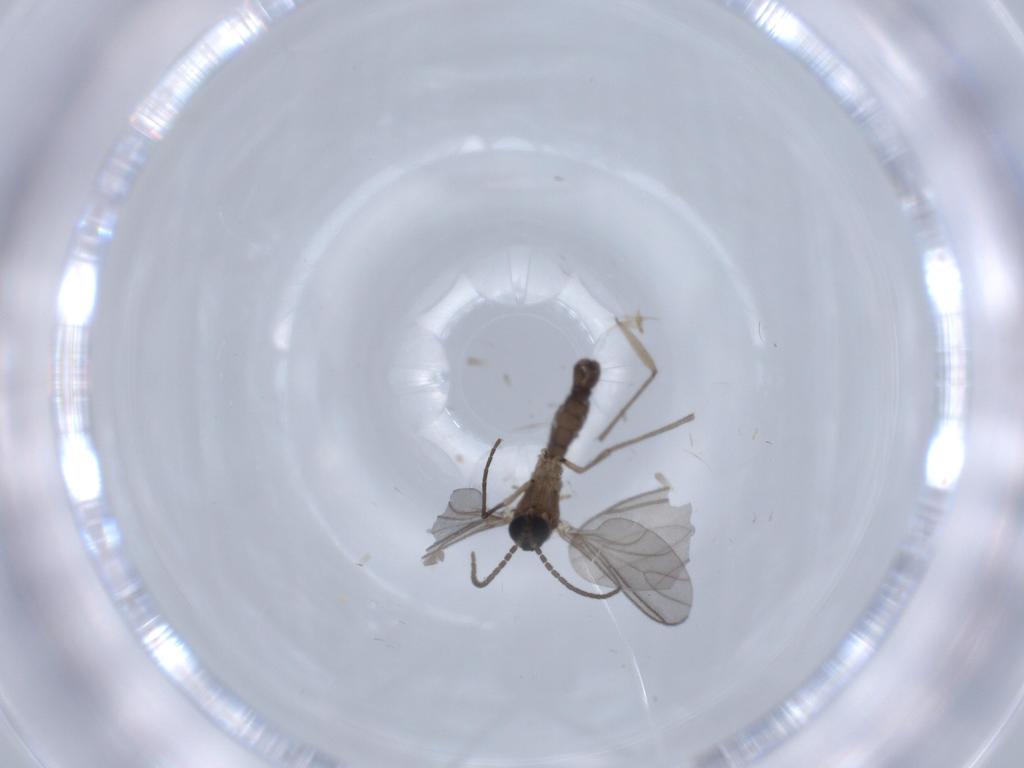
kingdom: Animalia
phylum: Arthropoda
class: Insecta
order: Diptera
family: Sciaridae
